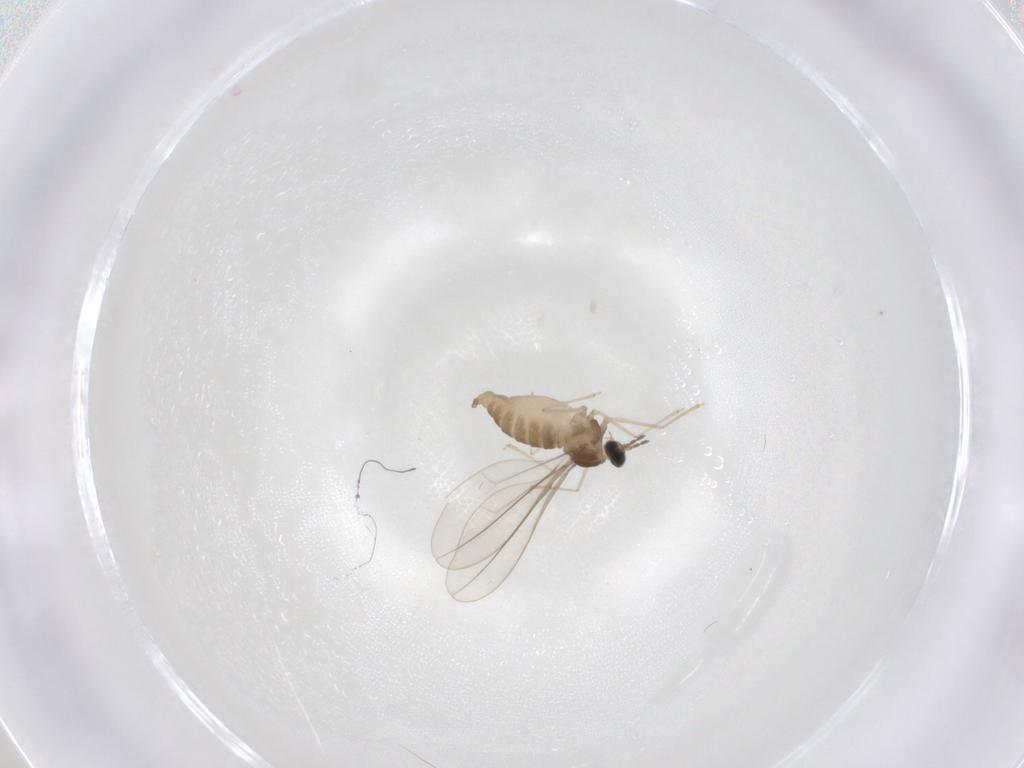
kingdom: Animalia
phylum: Arthropoda
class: Insecta
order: Diptera
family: Cecidomyiidae
